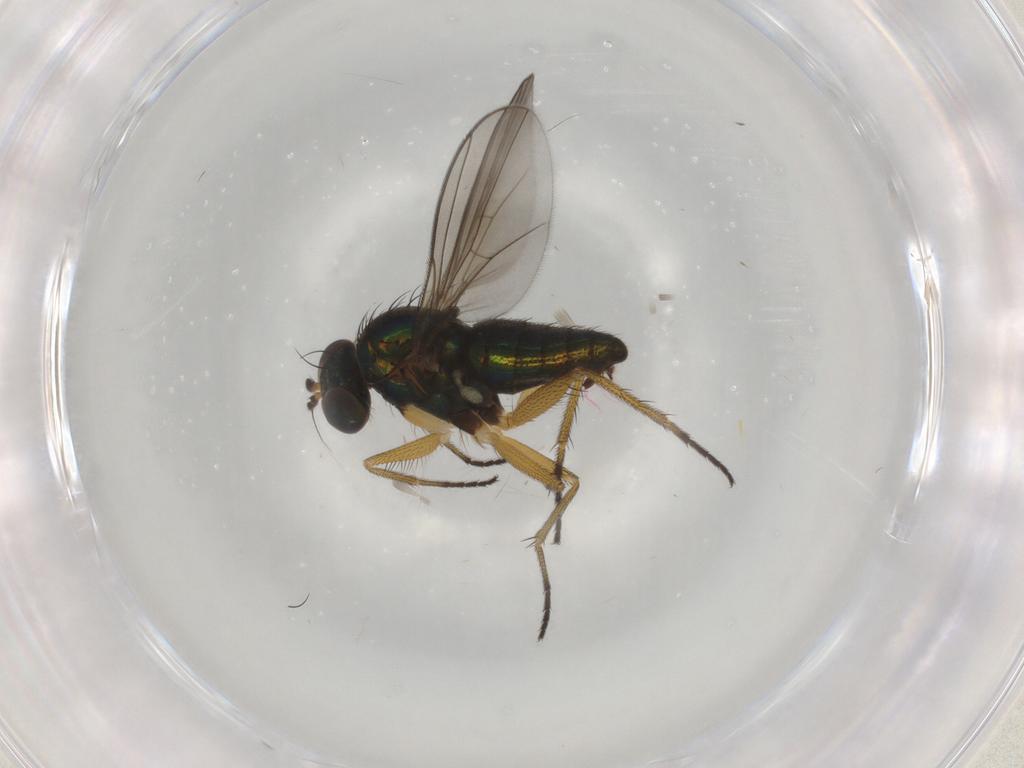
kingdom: Animalia
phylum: Arthropoda
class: Insecta
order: Diptera
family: Dolichopodidae
